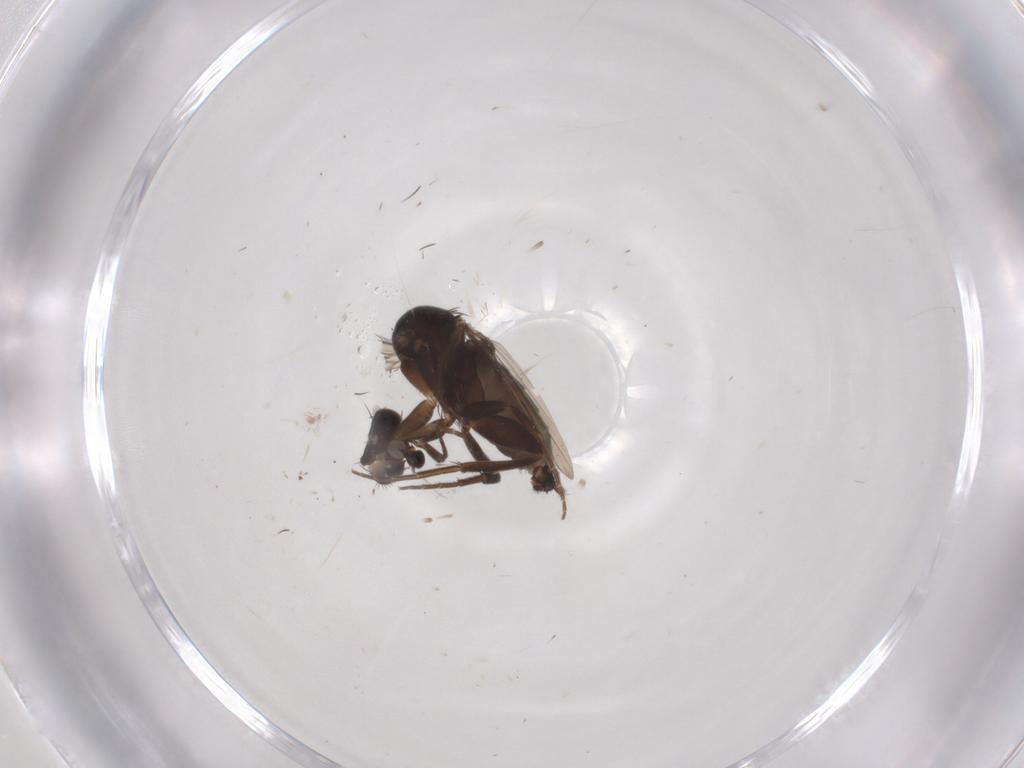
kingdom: Animalia
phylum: Arthropoda
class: Insecta
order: Diptera
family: Phoridae
